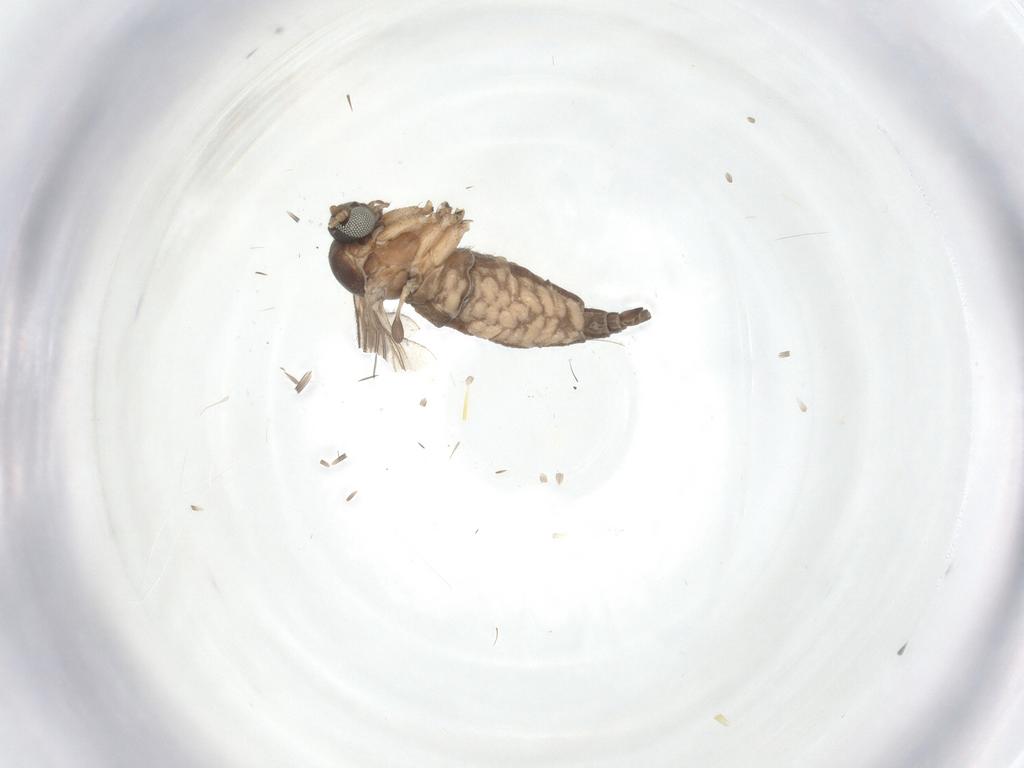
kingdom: Animalia
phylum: Arthropoda
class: Insecta
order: Diptera
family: Sciaridae
